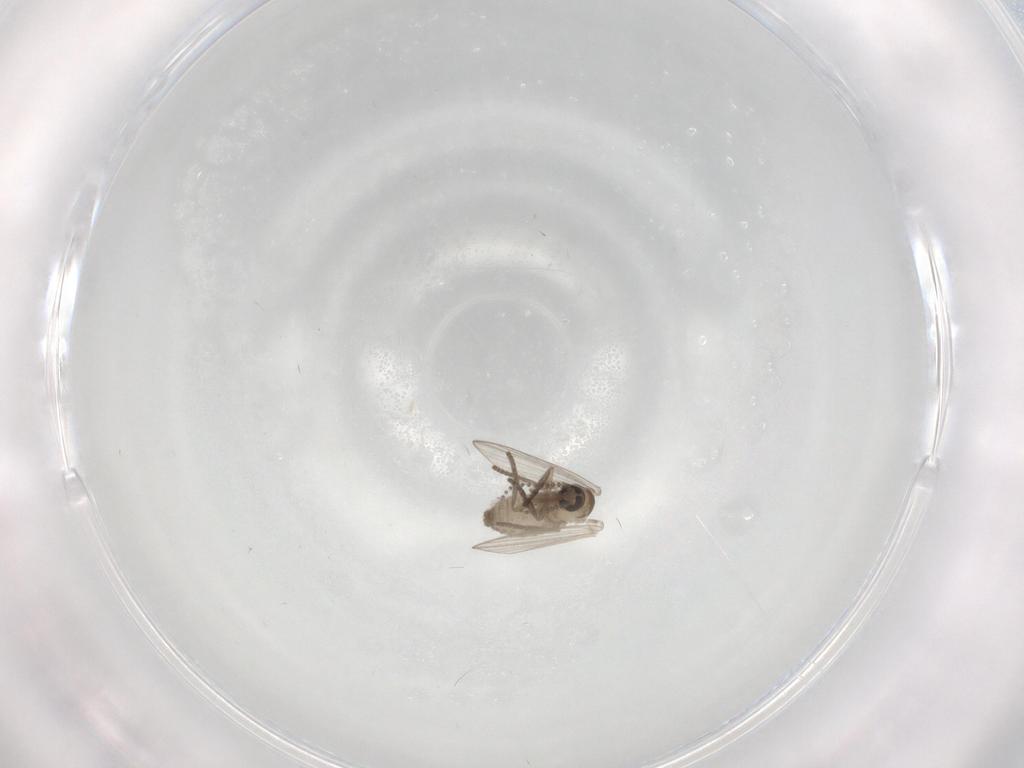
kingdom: Animalia
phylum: Arthropoda
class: Insecta
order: Diptera
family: Psychodidae
